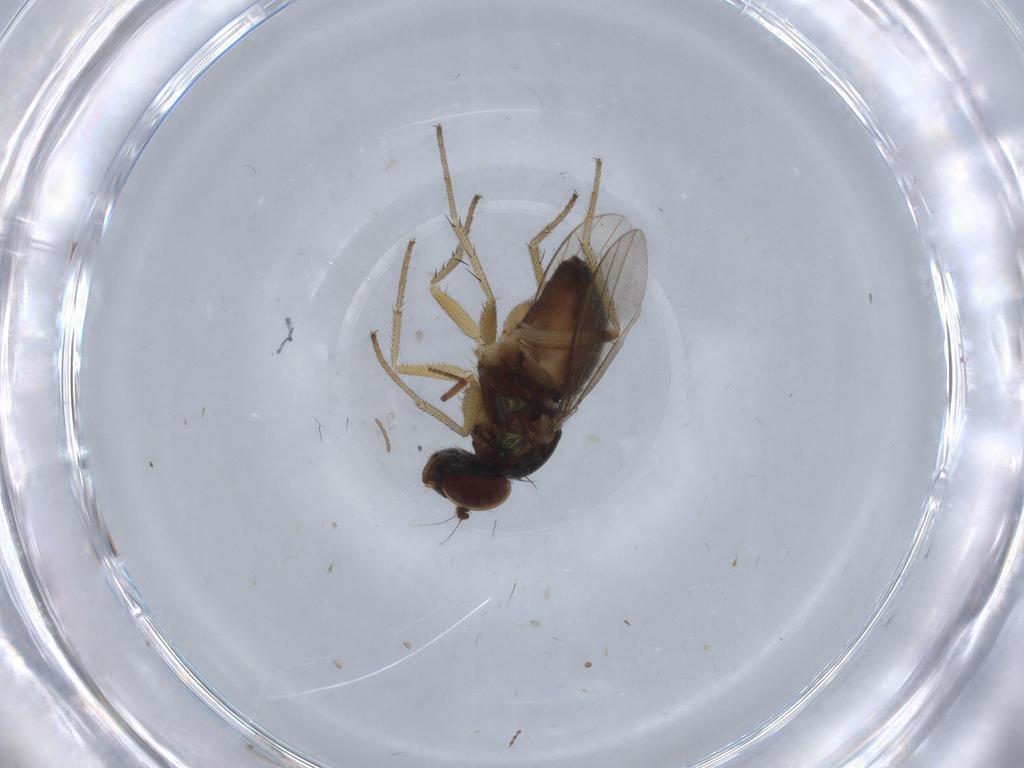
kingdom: Animalia
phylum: Arthropoda
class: Insecta
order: Diptera
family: Cecidomyiidae
